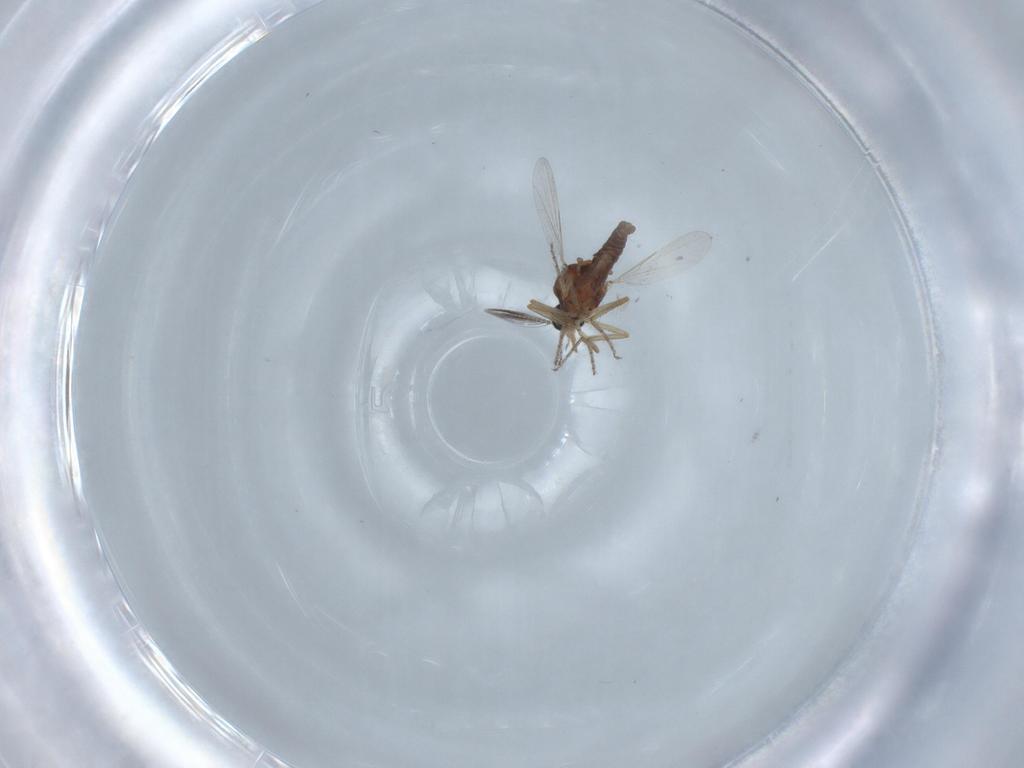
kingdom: Animalia
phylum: Arthropoda
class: Insecta
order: Diptera
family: Ceratopogonidae
